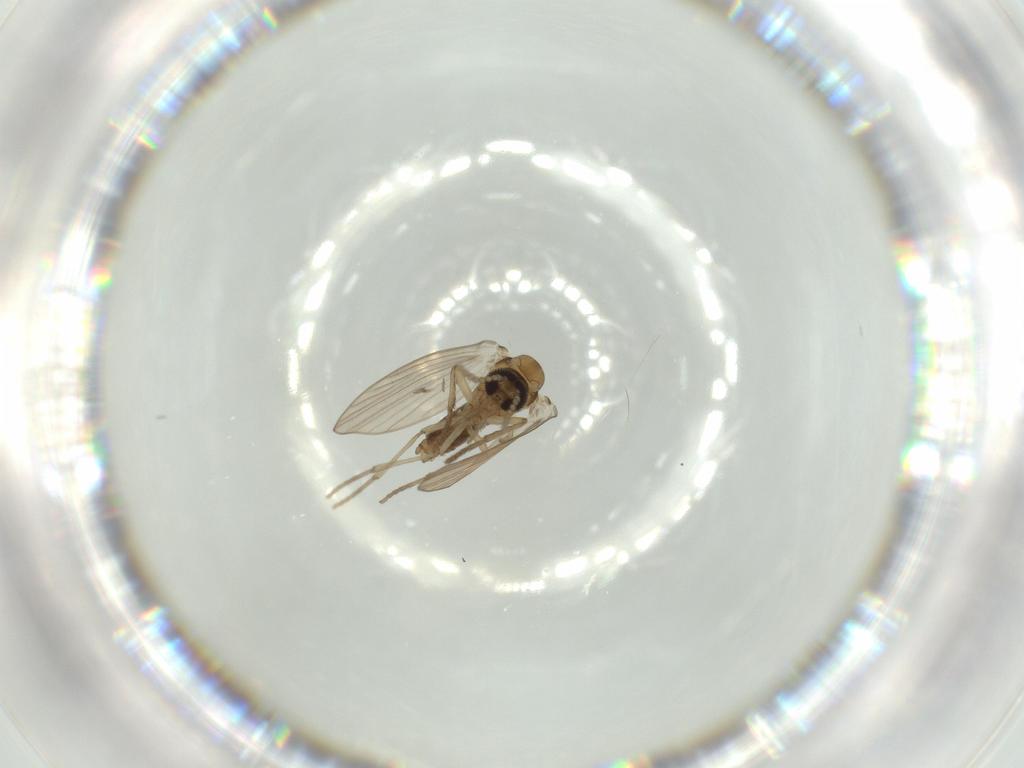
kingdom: Animalia
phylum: Arthropoda
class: Insecta
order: Diptera
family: Psychodidae
